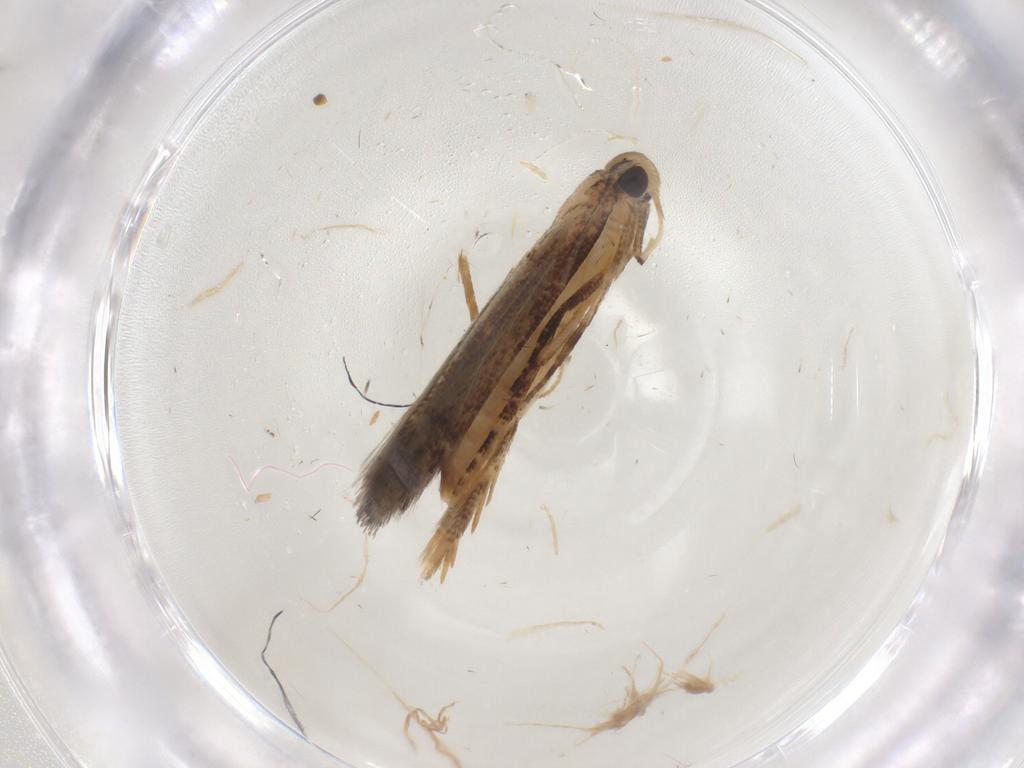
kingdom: Animalia
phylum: Arthropoda
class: Insecta
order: Lepidoptera
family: Cosmopterigidae
